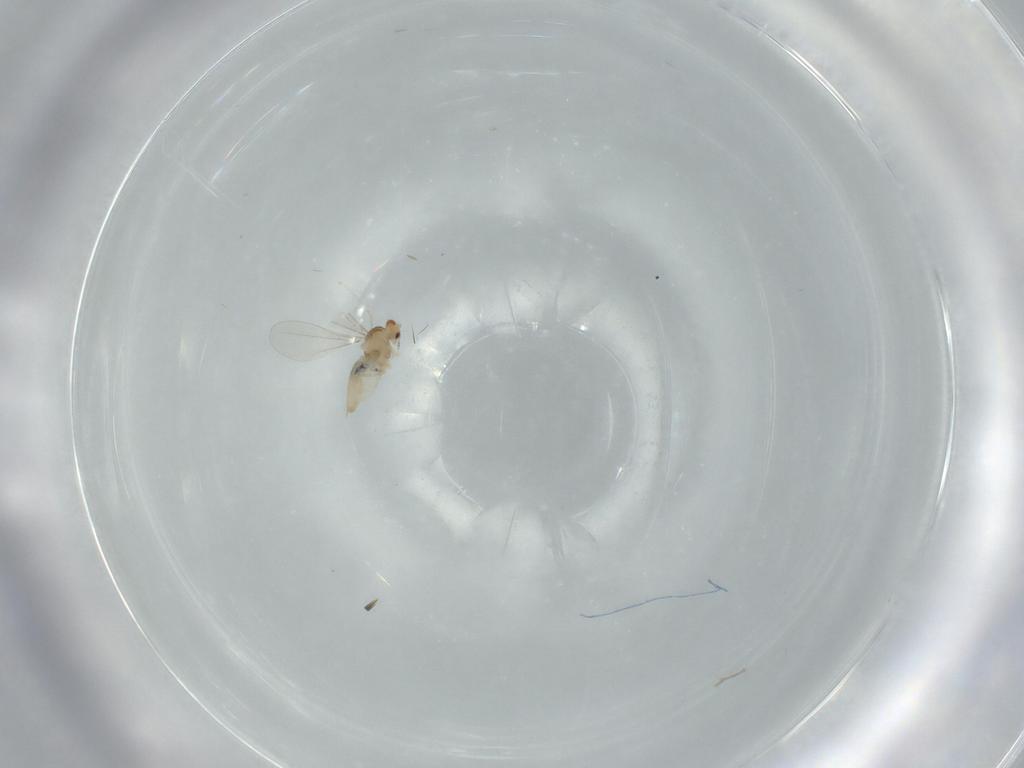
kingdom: Animalia
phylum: Arthropoda
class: Insecta
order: Diptera
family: Cecidomyiidae
